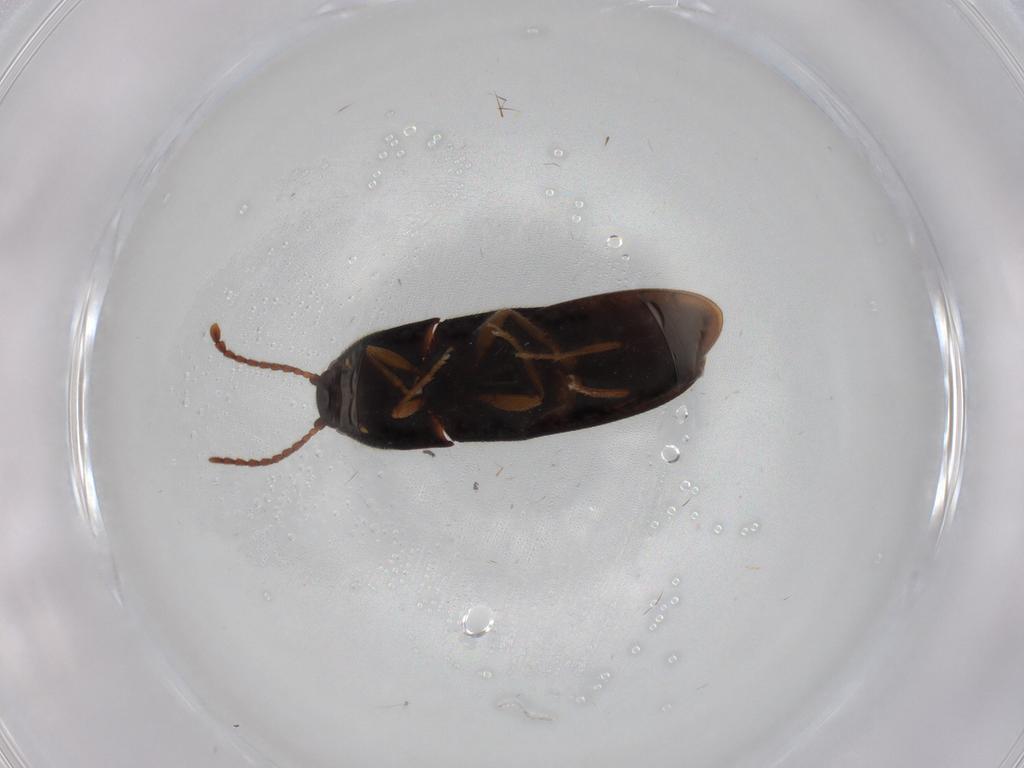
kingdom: Animalia
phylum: Arthropoda
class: Insecta
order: Coleoptera
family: Elateridae
